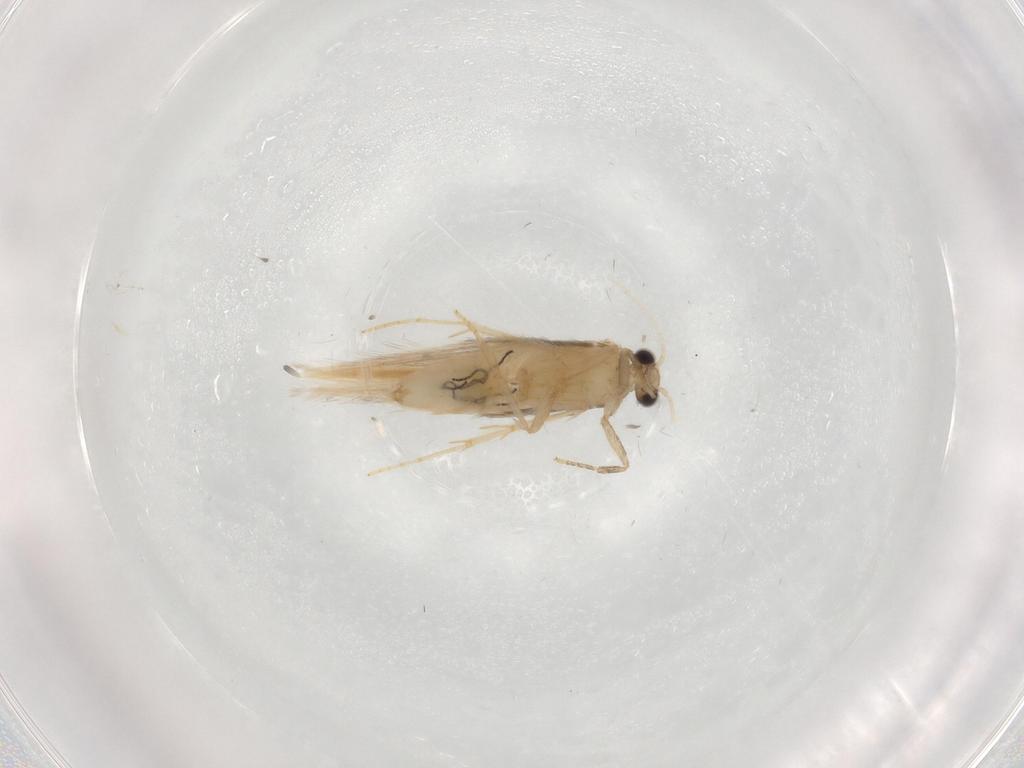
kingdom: Animalia
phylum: Arthropoda
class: Insecta
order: Trichoptera
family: Hydroptilidae
